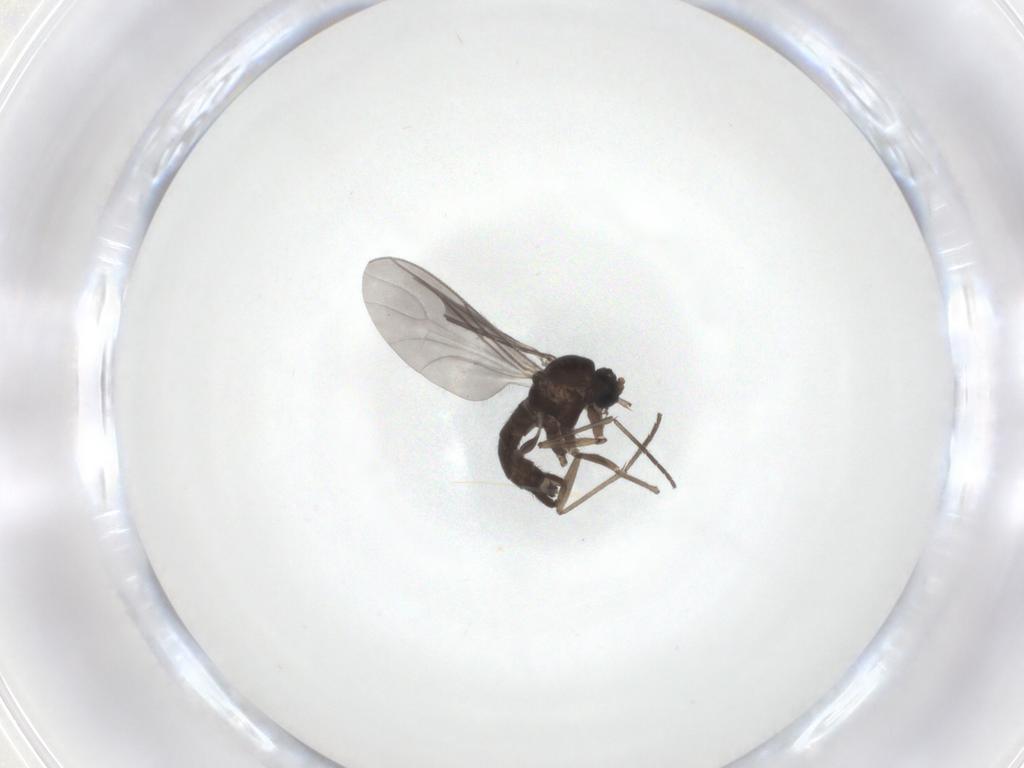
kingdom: Animalia
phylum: Arthropoda
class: Insecta
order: Diptera
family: Sciaridae
